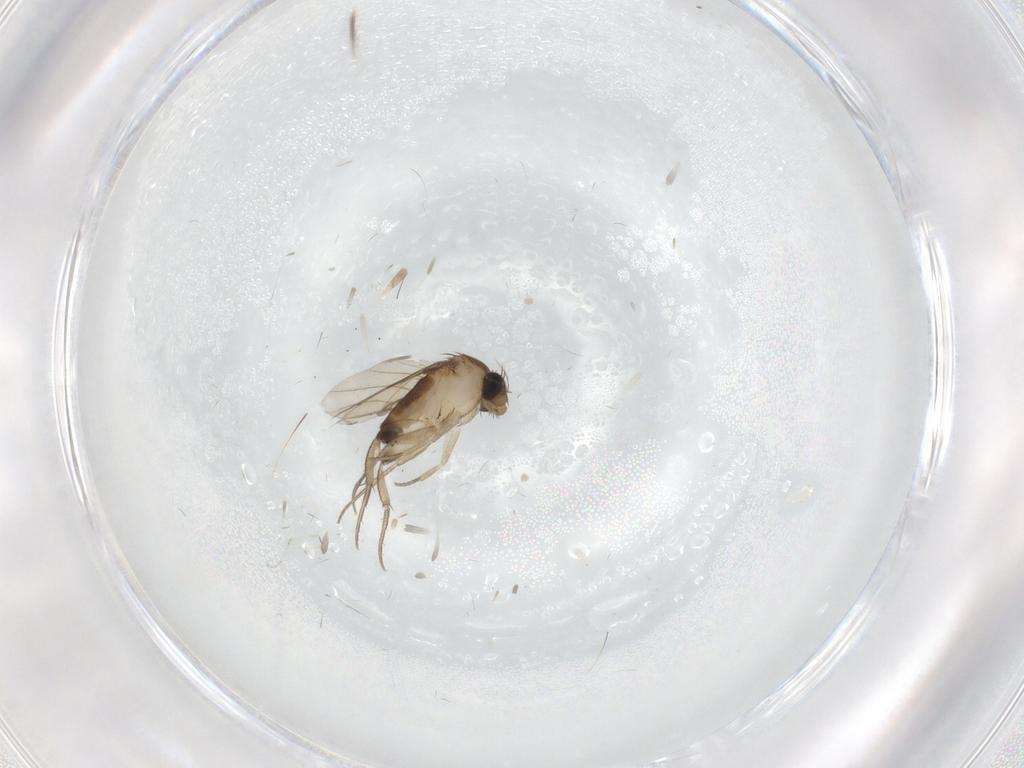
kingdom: Animalia
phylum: Arthropoda
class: Insecta
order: Diptera
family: Phoridae
